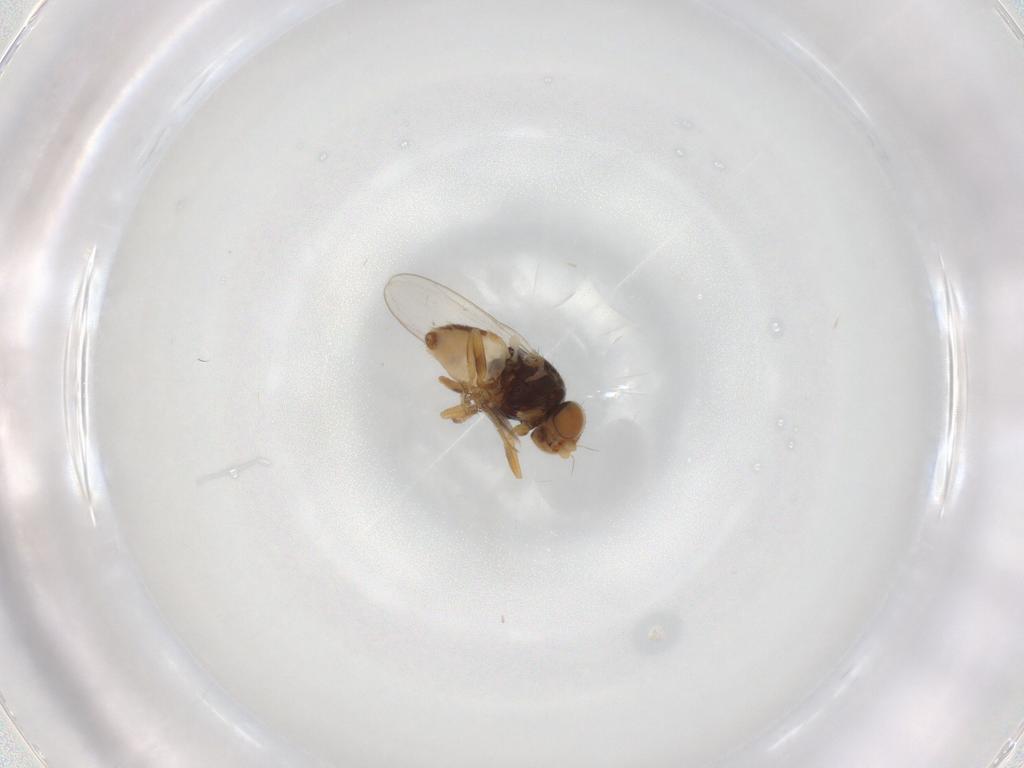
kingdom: Animalia
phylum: Arthropoda
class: Insecta
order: Diptera
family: Chloropidae
